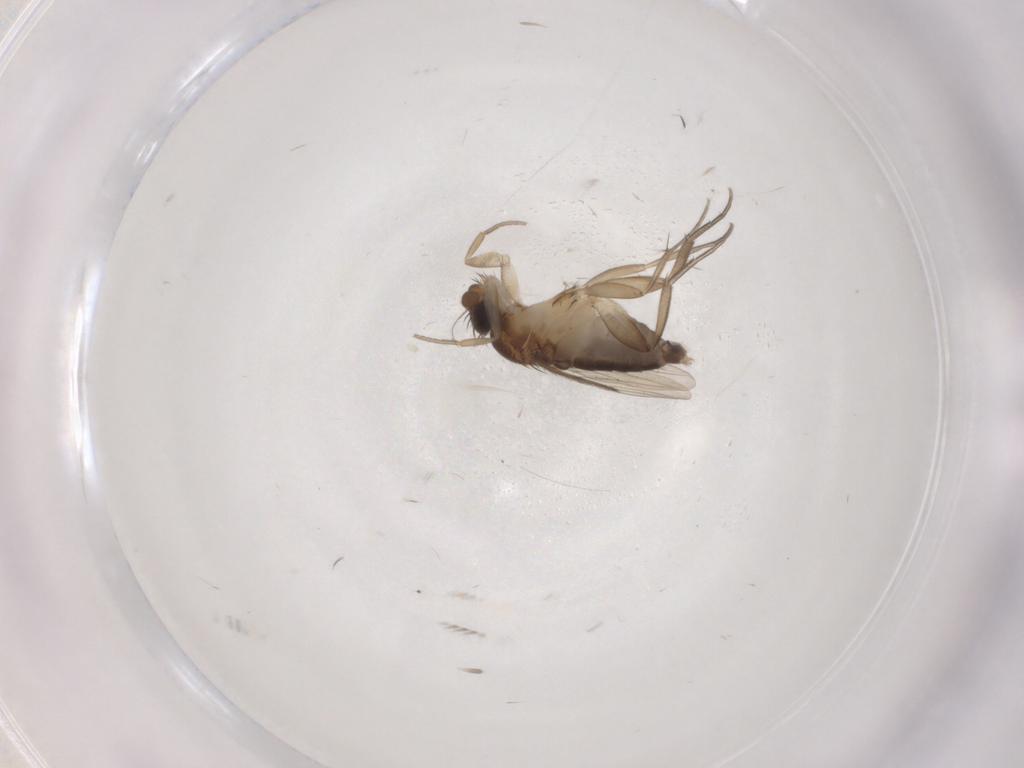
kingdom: Animalia
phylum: Arthropoda
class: Insecta
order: Diptera
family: Phoridae
